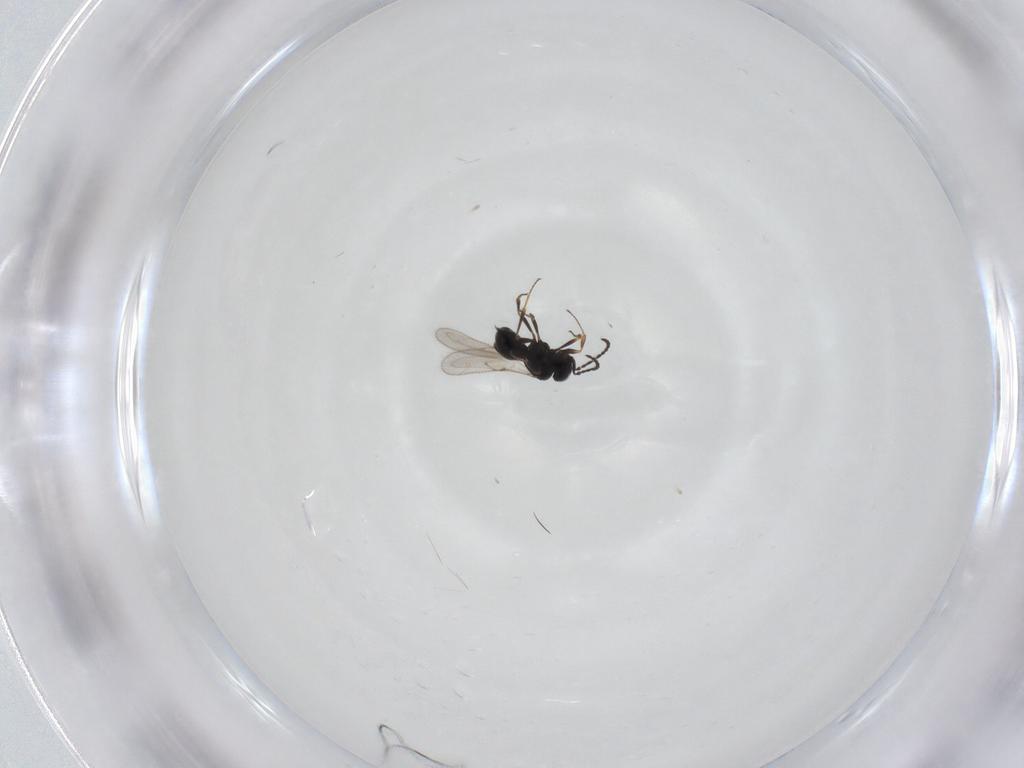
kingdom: Animalia
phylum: Arthropoda
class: Insecta
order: Hymenoptera
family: Scelionidae
